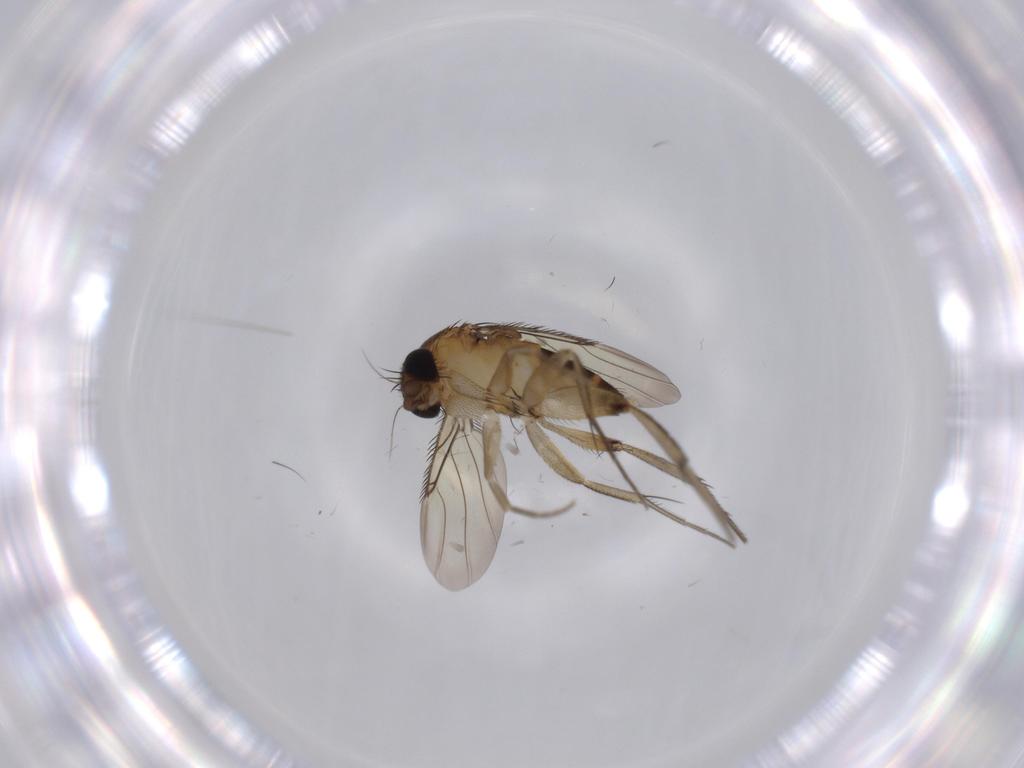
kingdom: Animalia
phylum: Arthropoda
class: Insecta
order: Diptera
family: Phoridae
